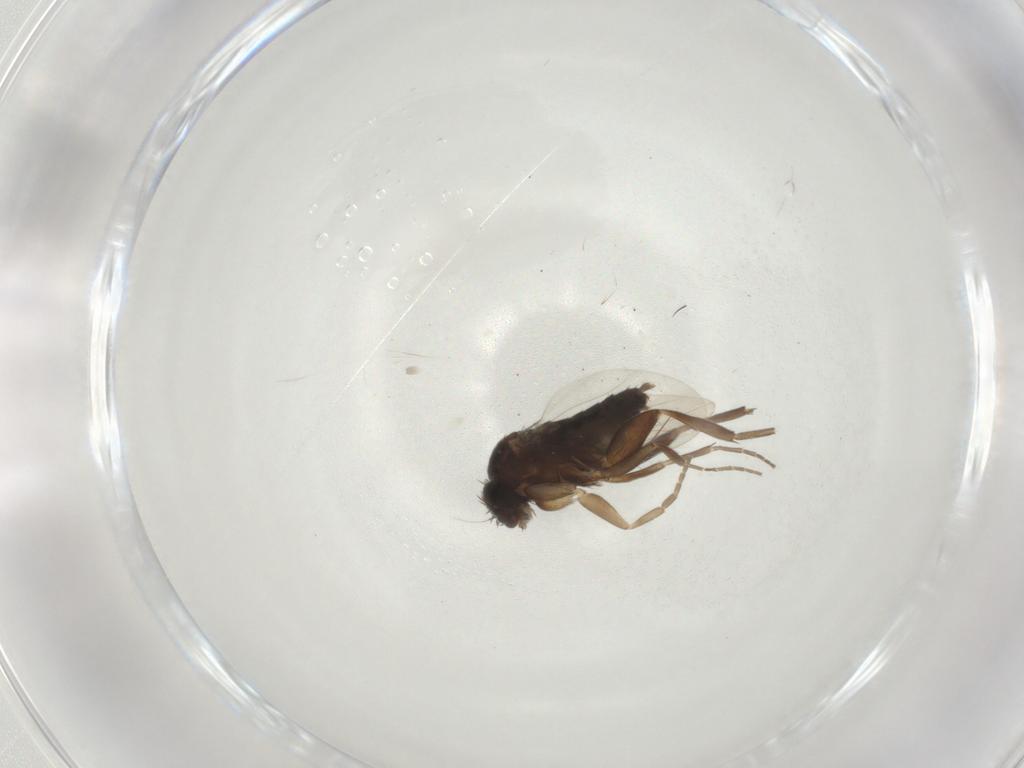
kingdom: Animalia
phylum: Arthropoda
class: Insecta
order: Diptera
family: Phoridae
